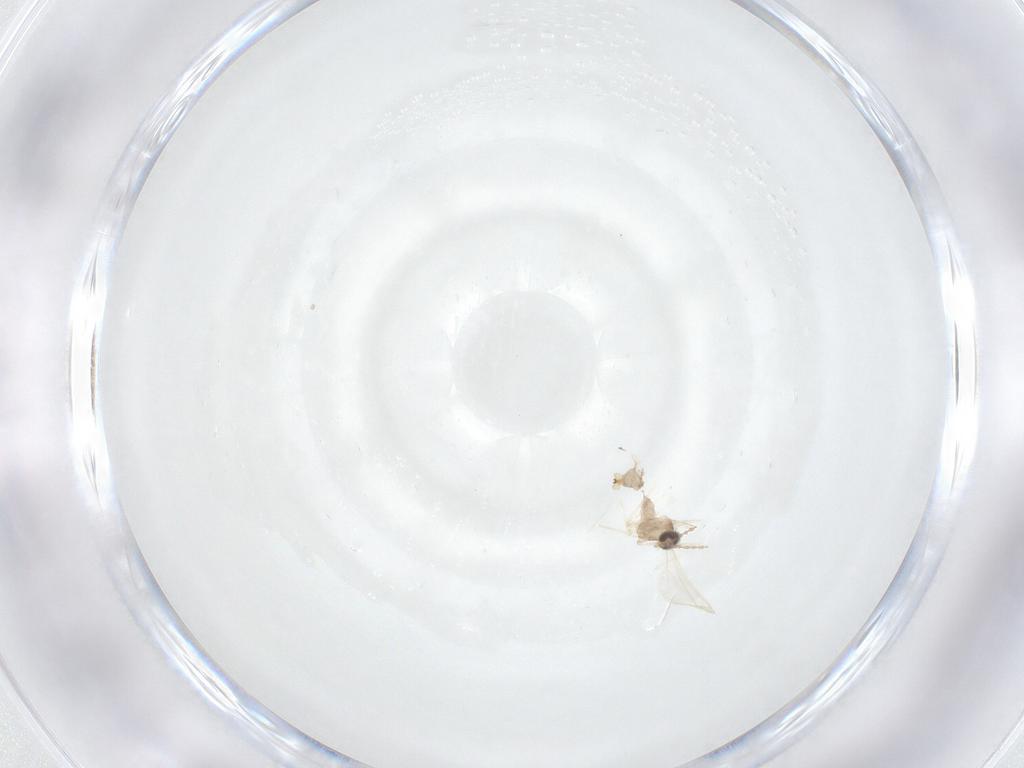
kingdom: Animalia
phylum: Arthropoda
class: Insecta
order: Diptera
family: Cecidomyiidae
